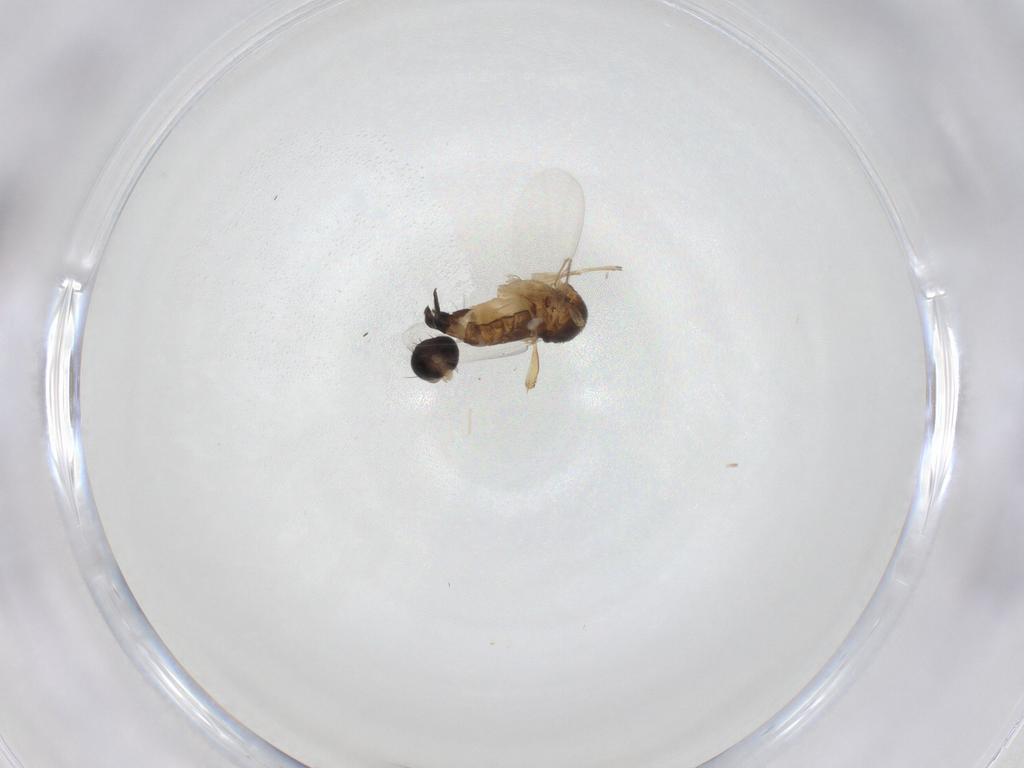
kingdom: Animalia
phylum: Arthropoda
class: Insecta
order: Diptera
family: Phoridae
